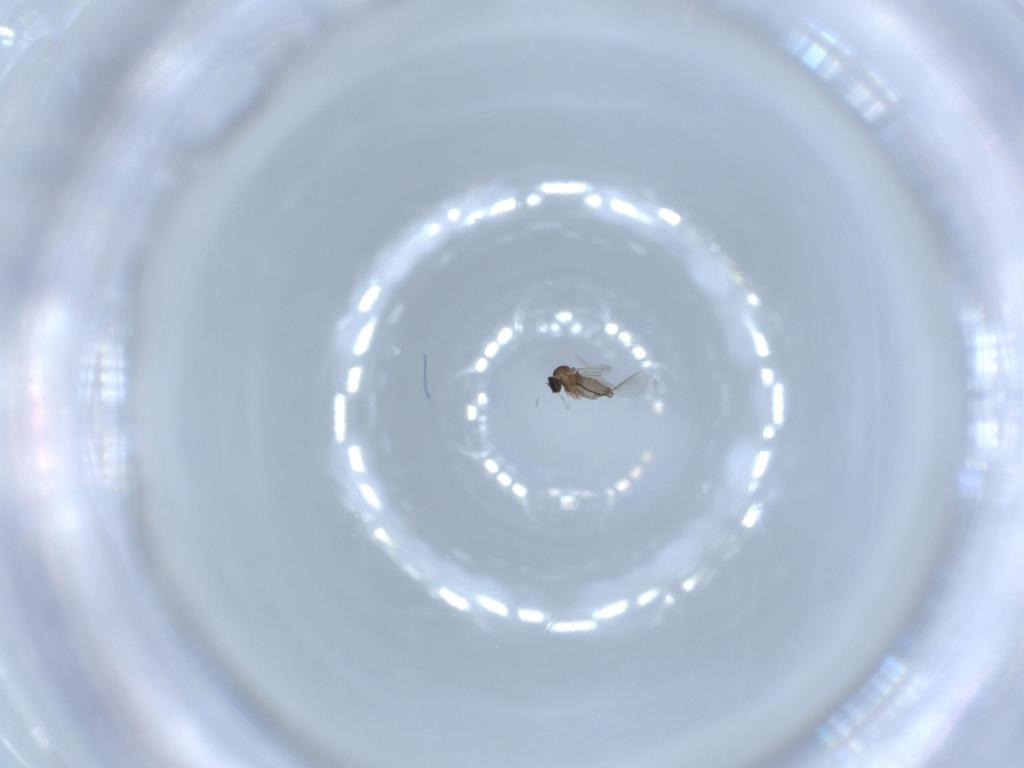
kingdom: Animalia
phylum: Arthropoda
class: Insecta
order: Diptera
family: Cecidomyiidae
